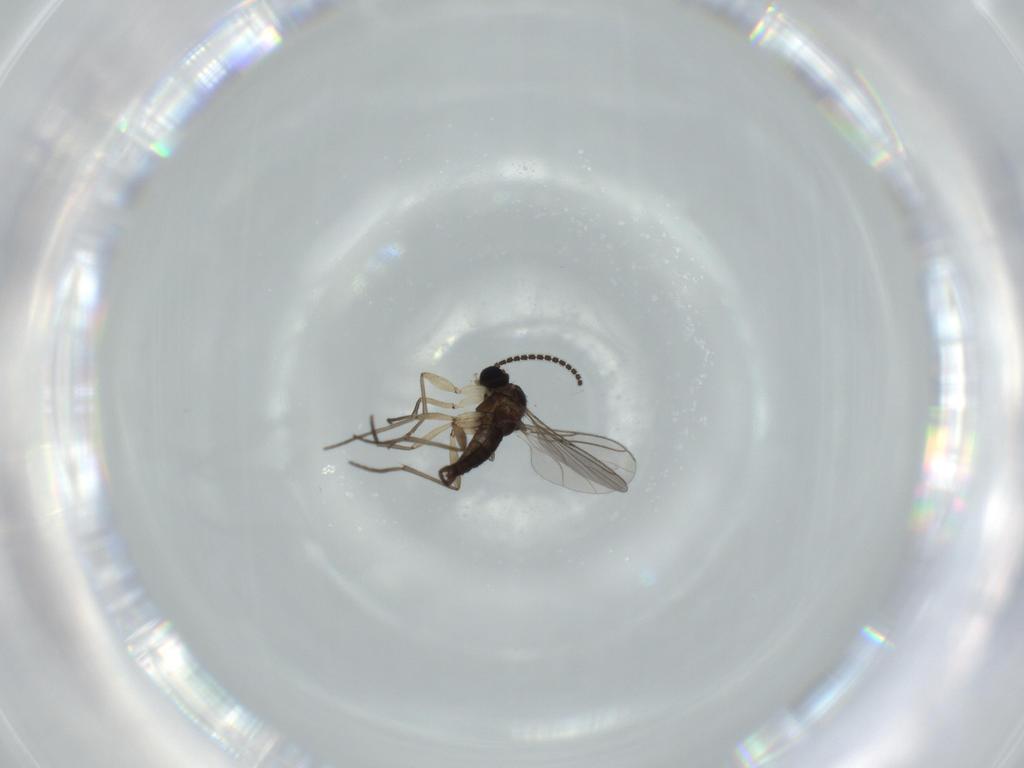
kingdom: Animalia
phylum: Arthropoda
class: Insecta
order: Diptera
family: Sciaridae
